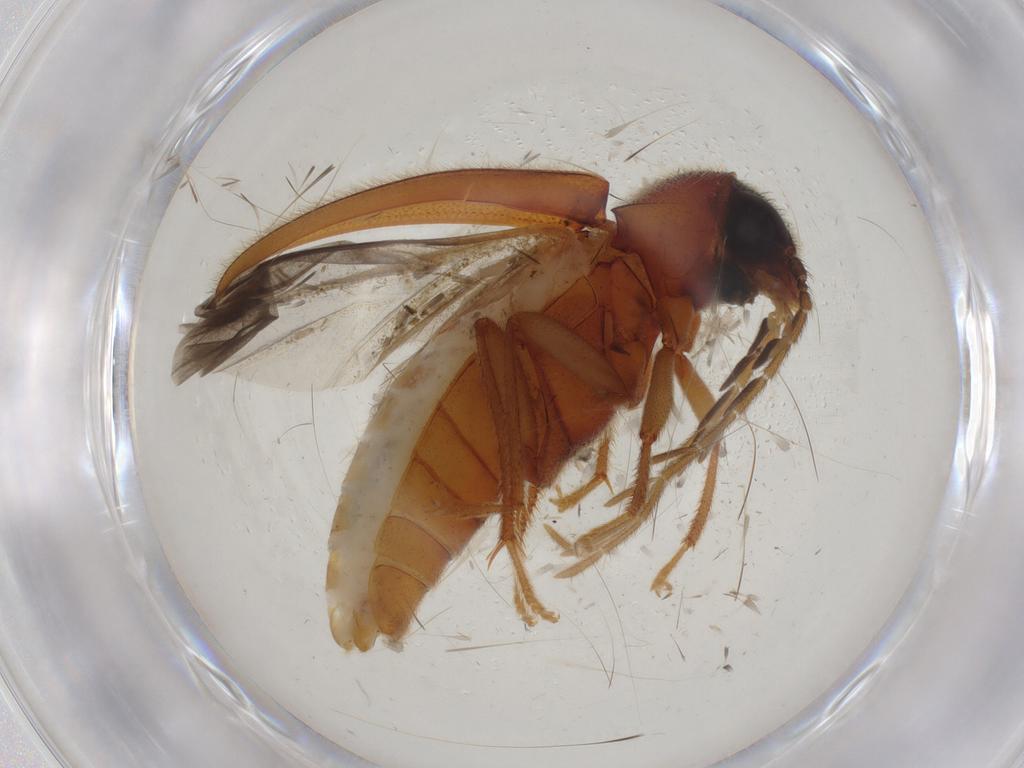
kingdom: Animalia
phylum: Arthropoda
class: Insecta
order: Coleoptera
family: Ptilodactylidae
